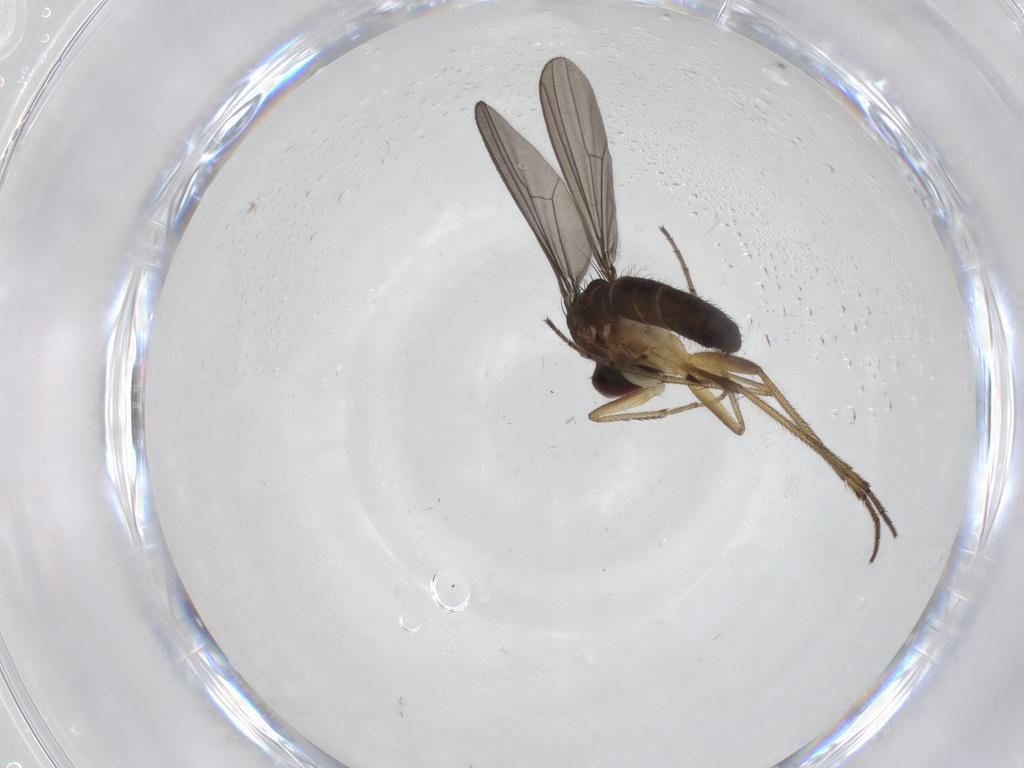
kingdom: Animalia
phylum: Arthropoda
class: Insecta
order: Diptera
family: Dolichopodidae
